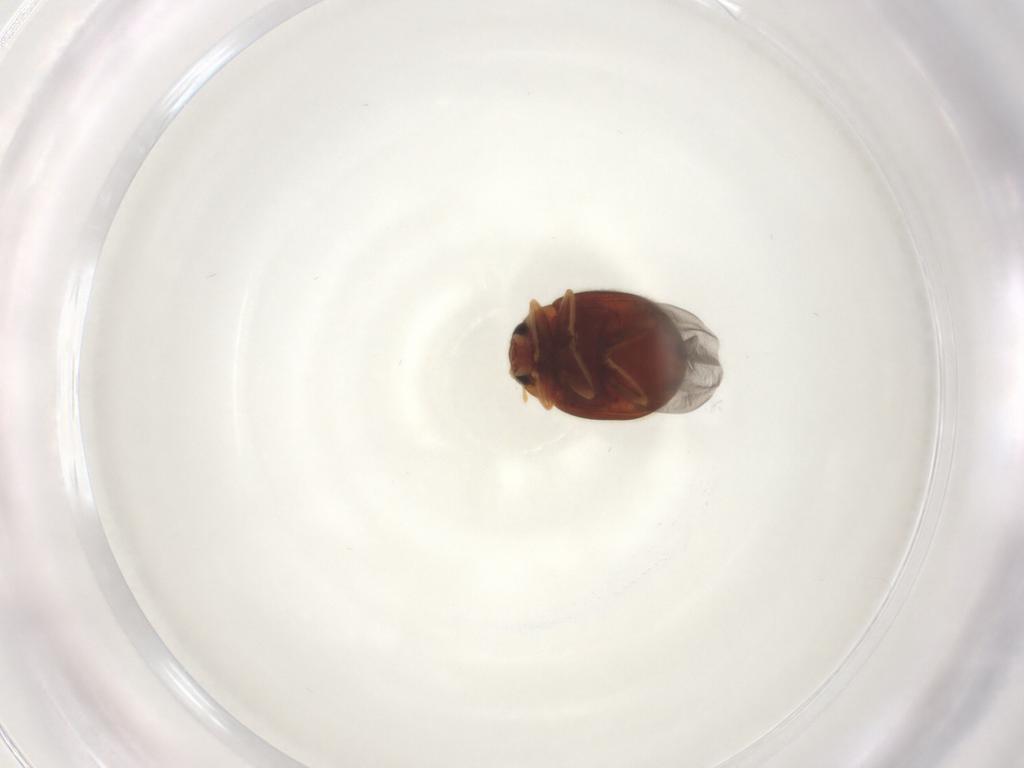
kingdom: Animalia
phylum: Arthropoda
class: Insecta
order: Coleoptera
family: Coccinellidae
